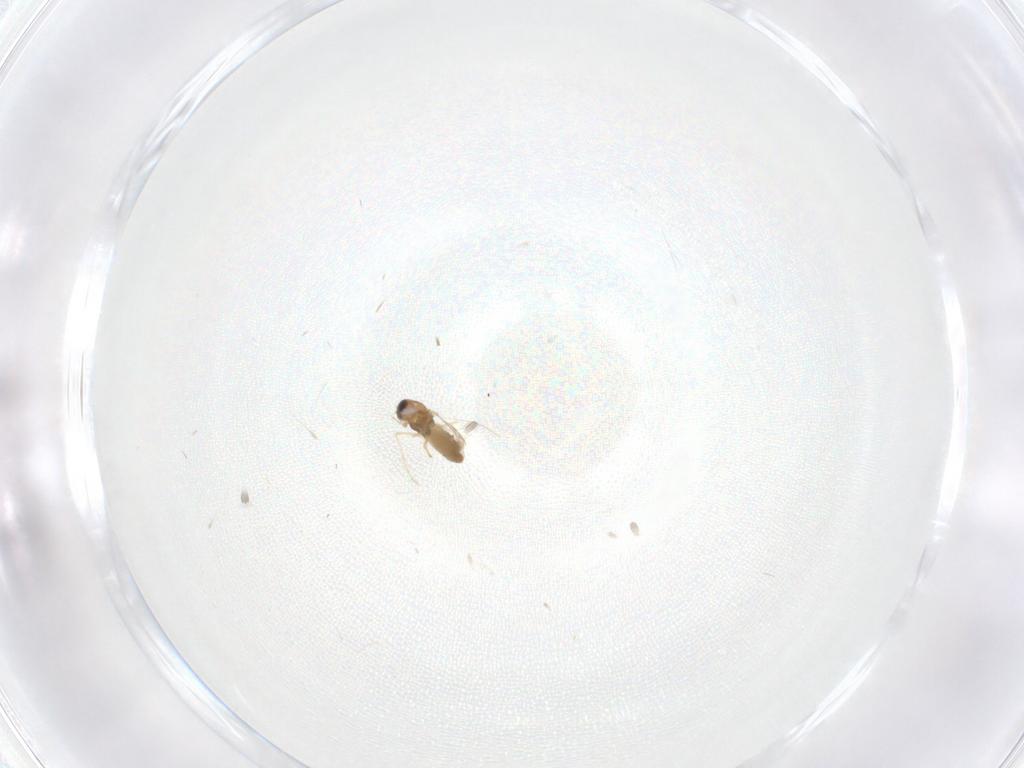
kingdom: Animalia
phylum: Arthropoda
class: Insecta
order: Diptera
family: Chironomidae
